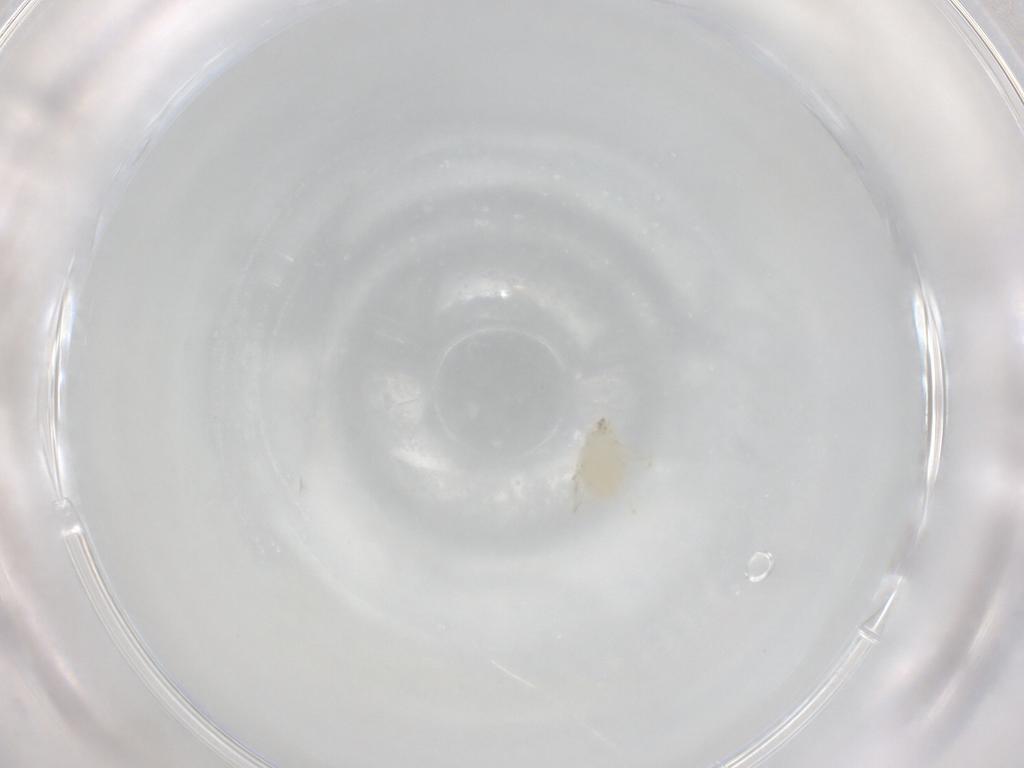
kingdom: Animalia
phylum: Arthropoda
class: Arachnida
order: Trombidiformes
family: Erythraeidae
